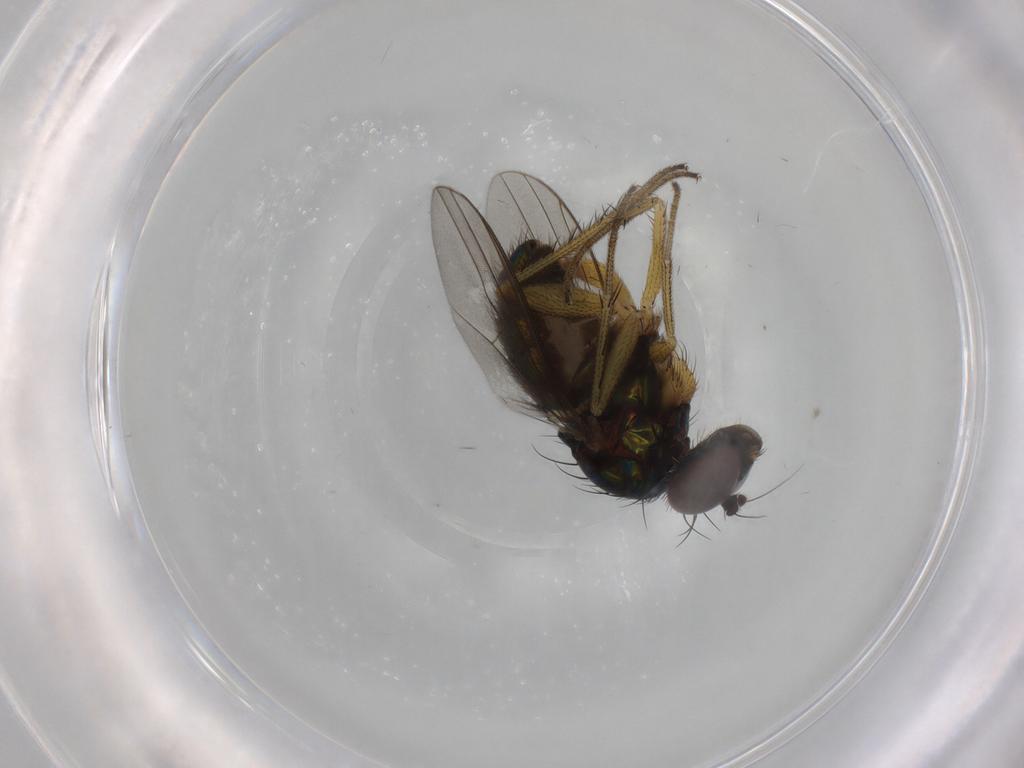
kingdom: Animalia
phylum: Arthropoda
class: Insecta
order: Diptera
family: Dolichopodidae
